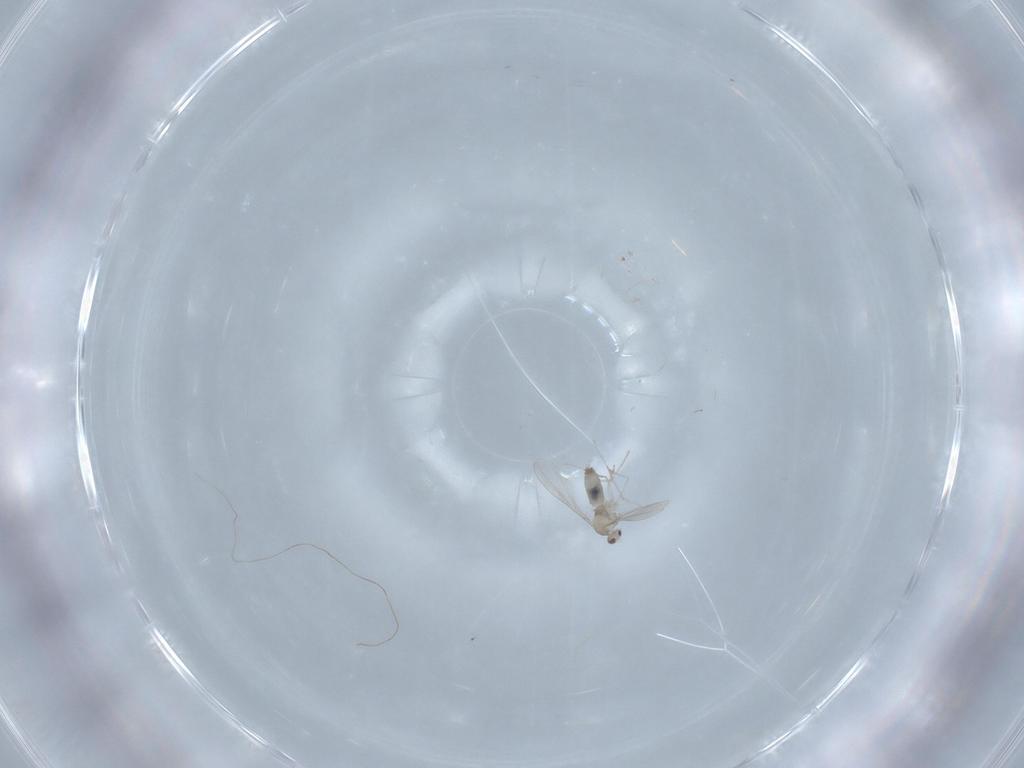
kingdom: Animalia
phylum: Arthropoda
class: Insecta
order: Diptera
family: Cecidomyiidae
